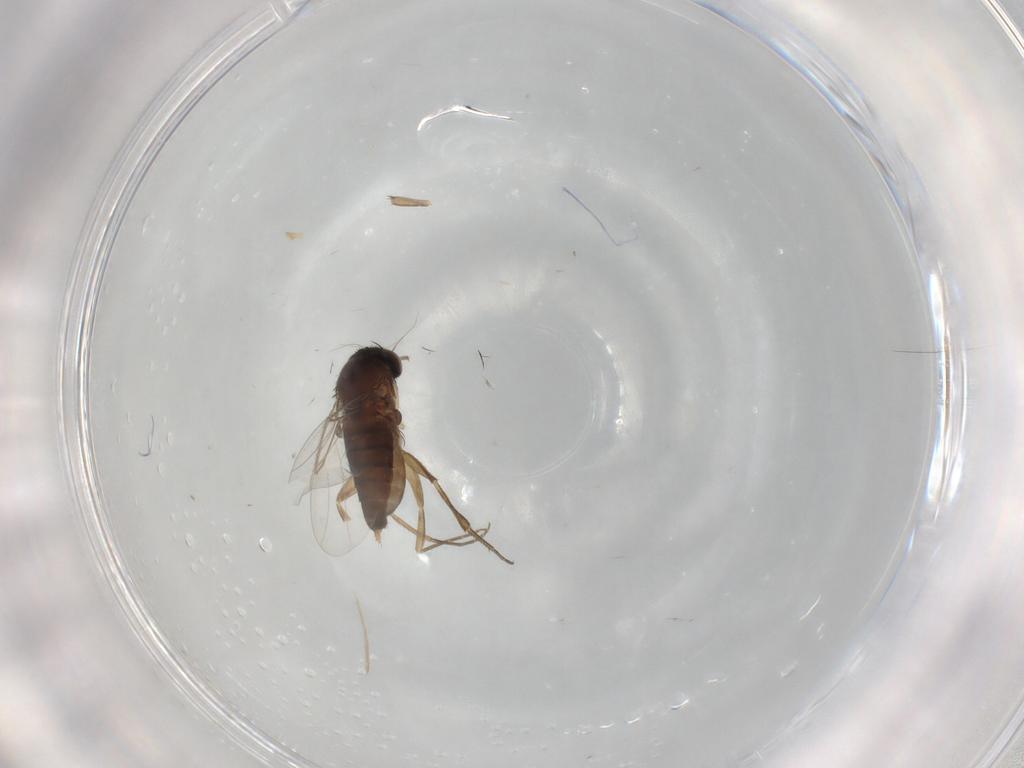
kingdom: Animalia
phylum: Arthropoda
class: Insecta
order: Diptera
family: Phoridae
